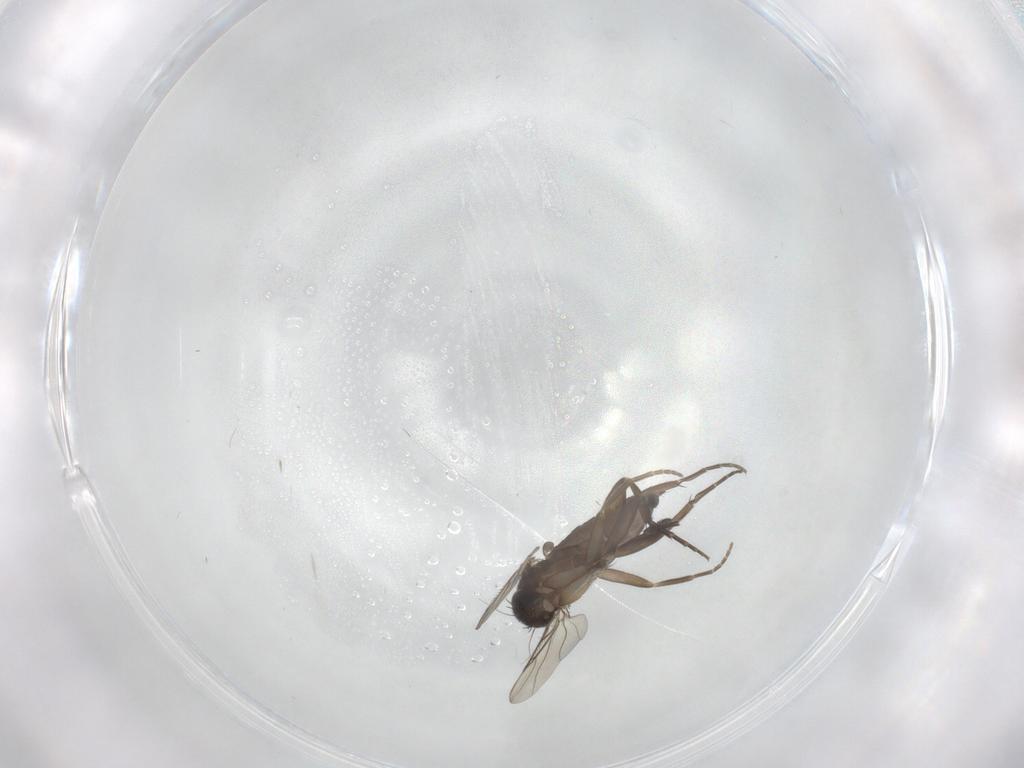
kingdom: Animalia
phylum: Arthropoda
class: Insecta
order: Diptera
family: Phoridae
